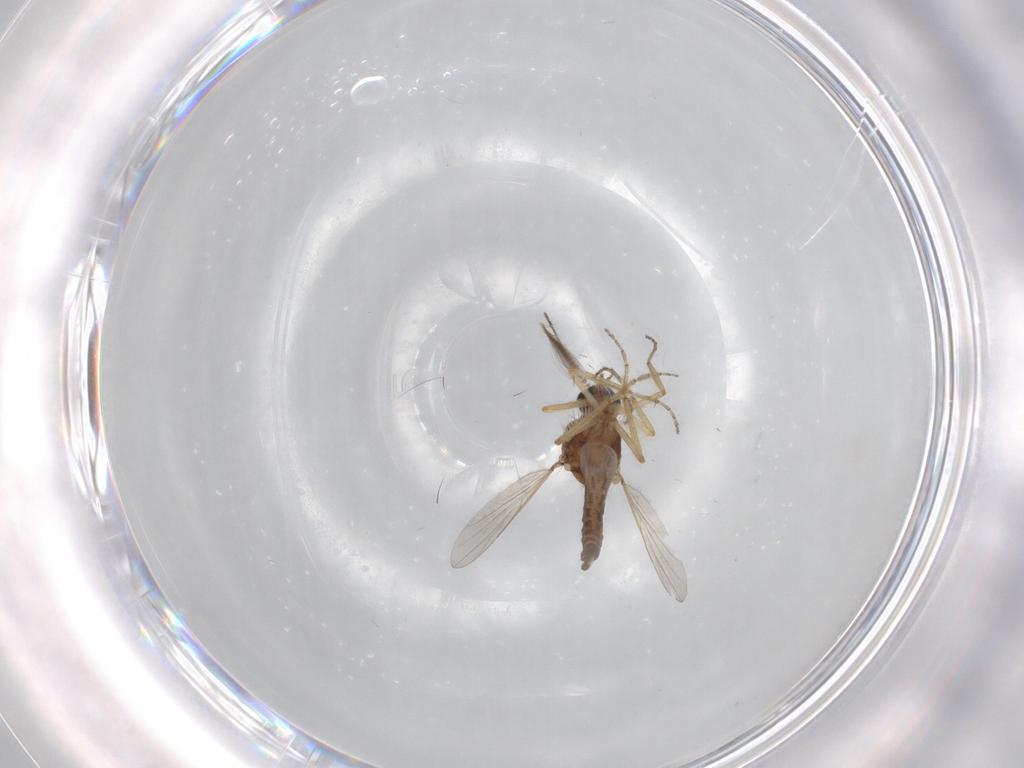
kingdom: Animalia
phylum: Arthropoda
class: Insecta
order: Diptera
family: Ceratopogonidae
